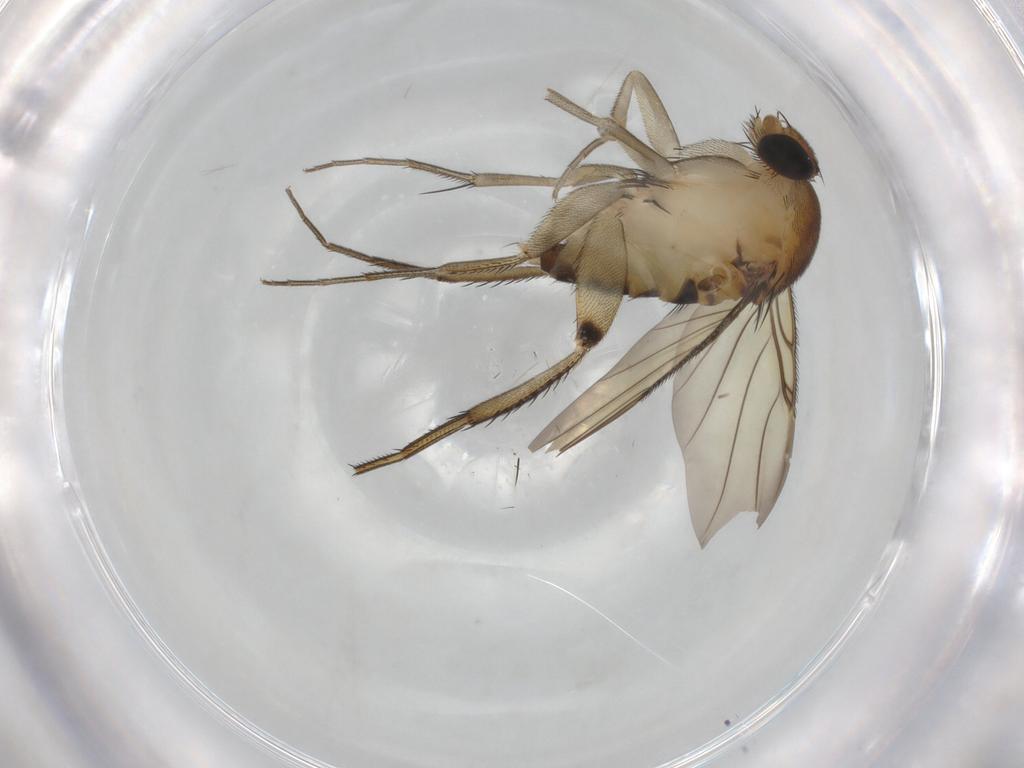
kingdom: Animalia
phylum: Arthropoda
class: Insecta
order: Diptera
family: Phoridae
